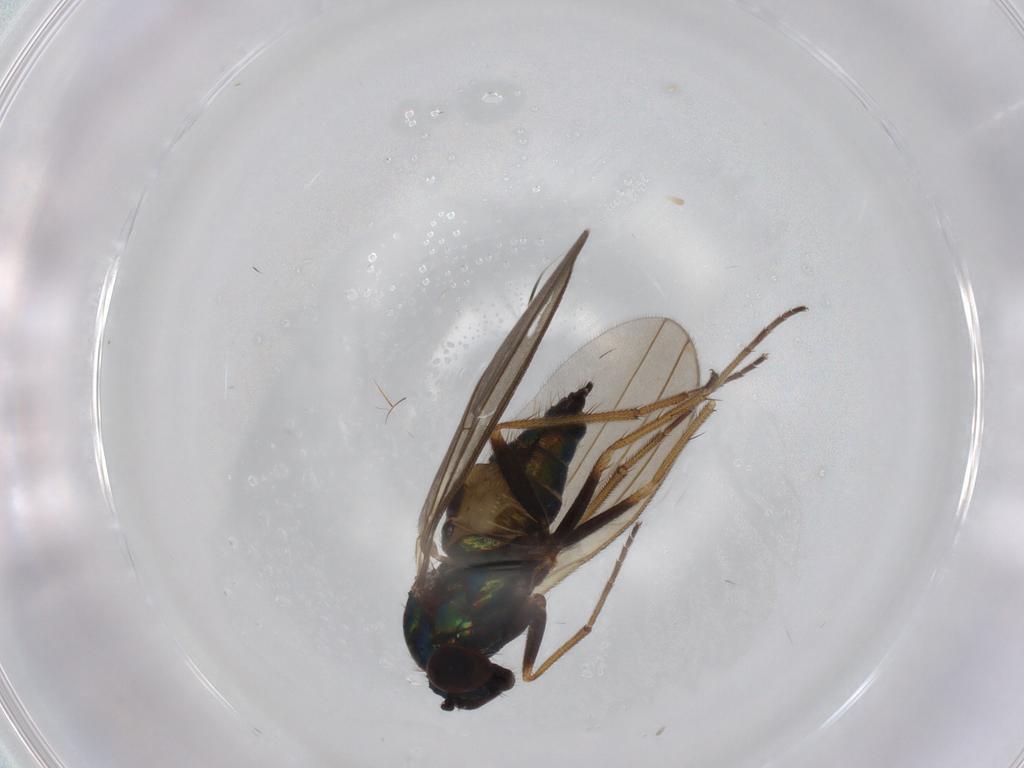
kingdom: Animalia
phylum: Arthropoda
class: Insecta
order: Diptera
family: Dolichopodidae
